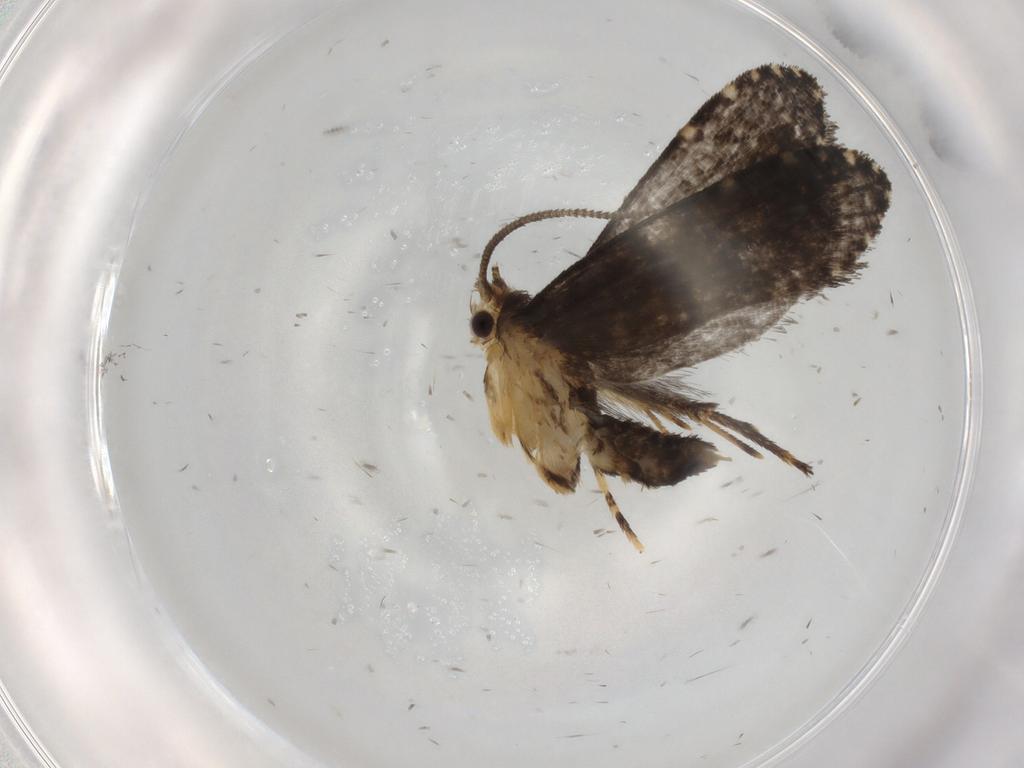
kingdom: Animalia
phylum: Arthropoda
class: Insecta
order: Lepidoptera
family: Tineidae
